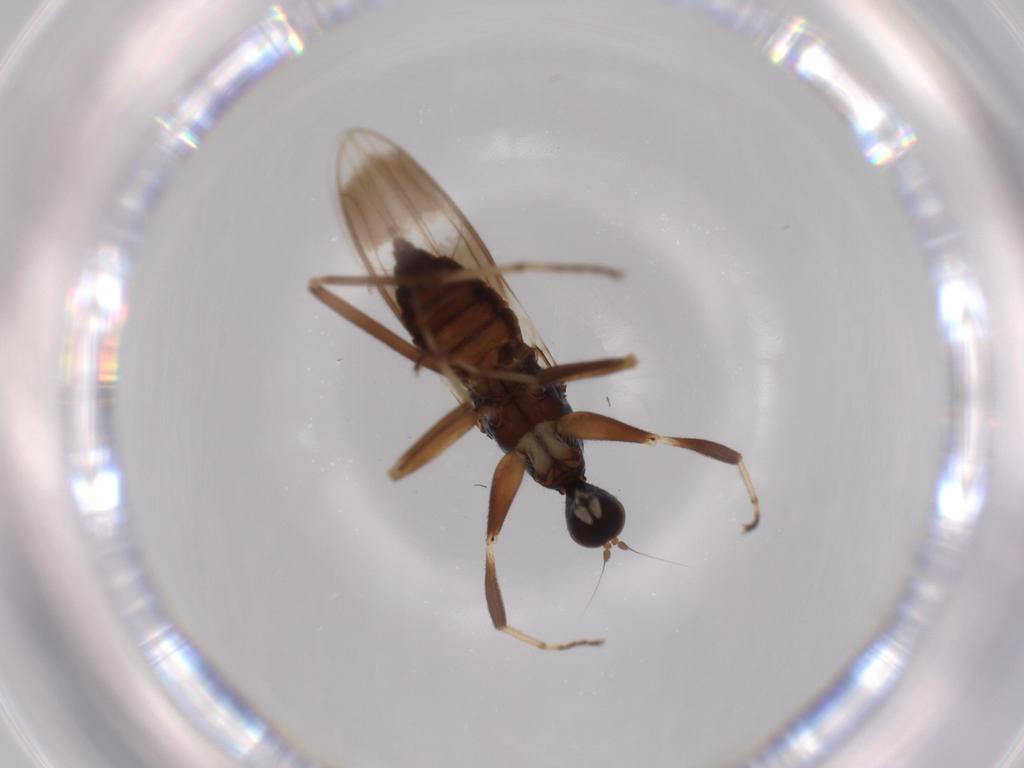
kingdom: Animalia
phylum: Arthropoda
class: Insecta
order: Diptera
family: Hybotidae
